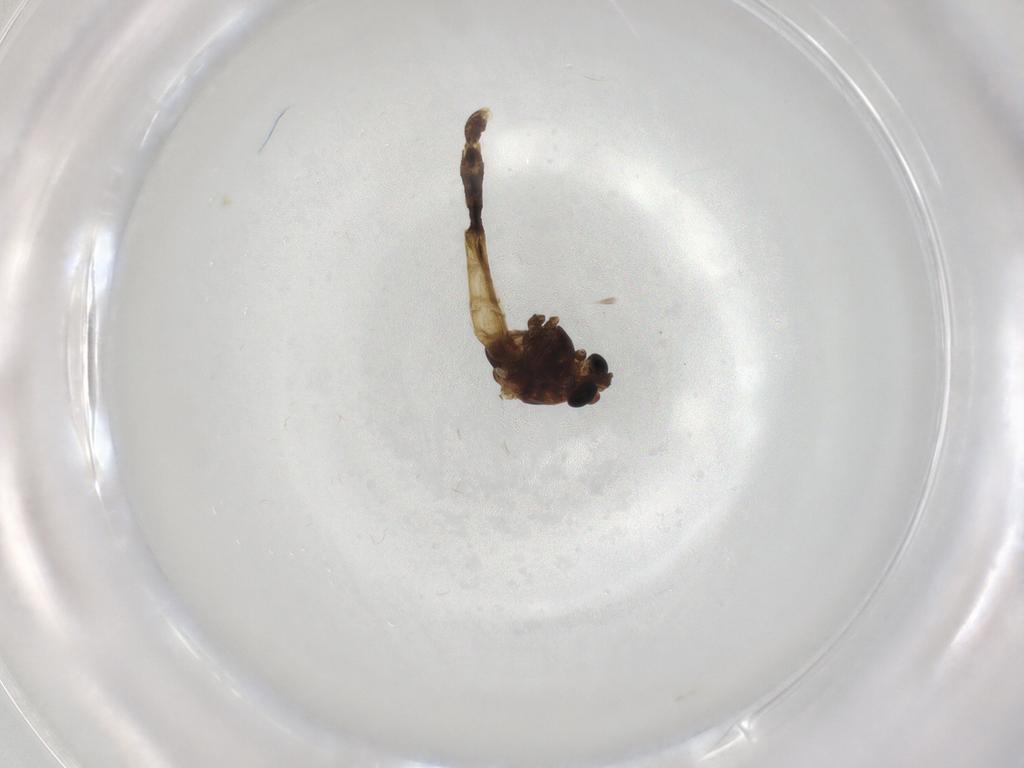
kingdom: Animalia
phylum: Arthropoda
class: Insecta
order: Diptera
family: Chironomidae
